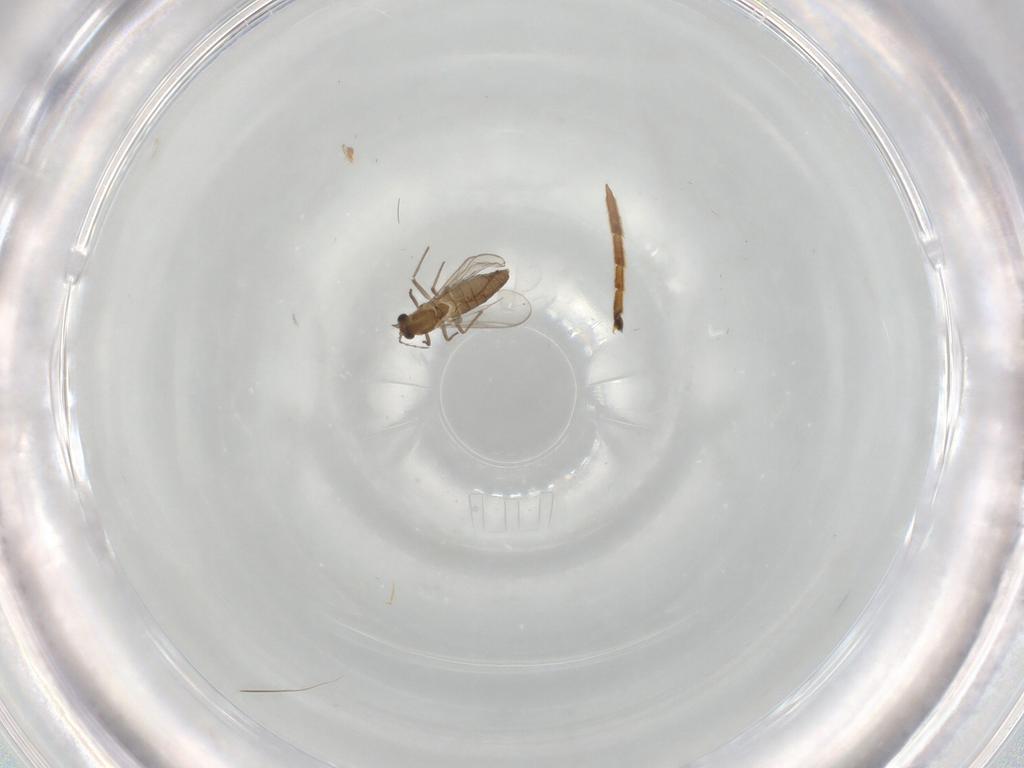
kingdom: Animalia
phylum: Arthropoda
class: Insecta
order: Diptera
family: Chironomidae
